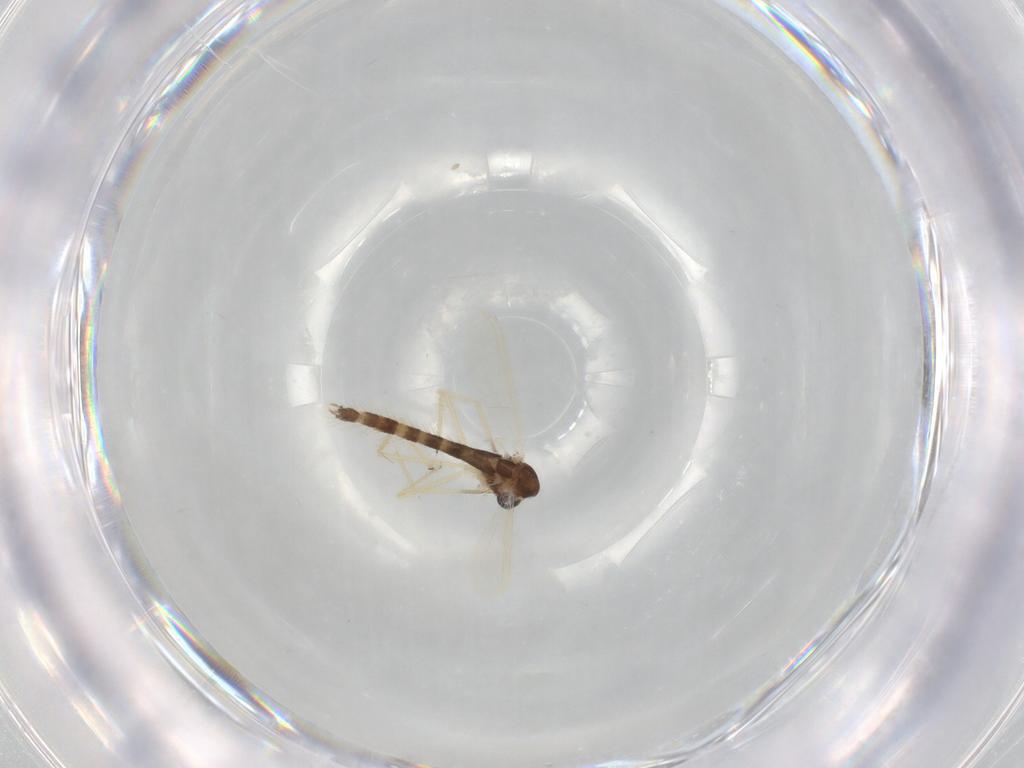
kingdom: Animalia
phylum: Arthropoda
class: Insecta
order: Diptera
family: Chironomidae
